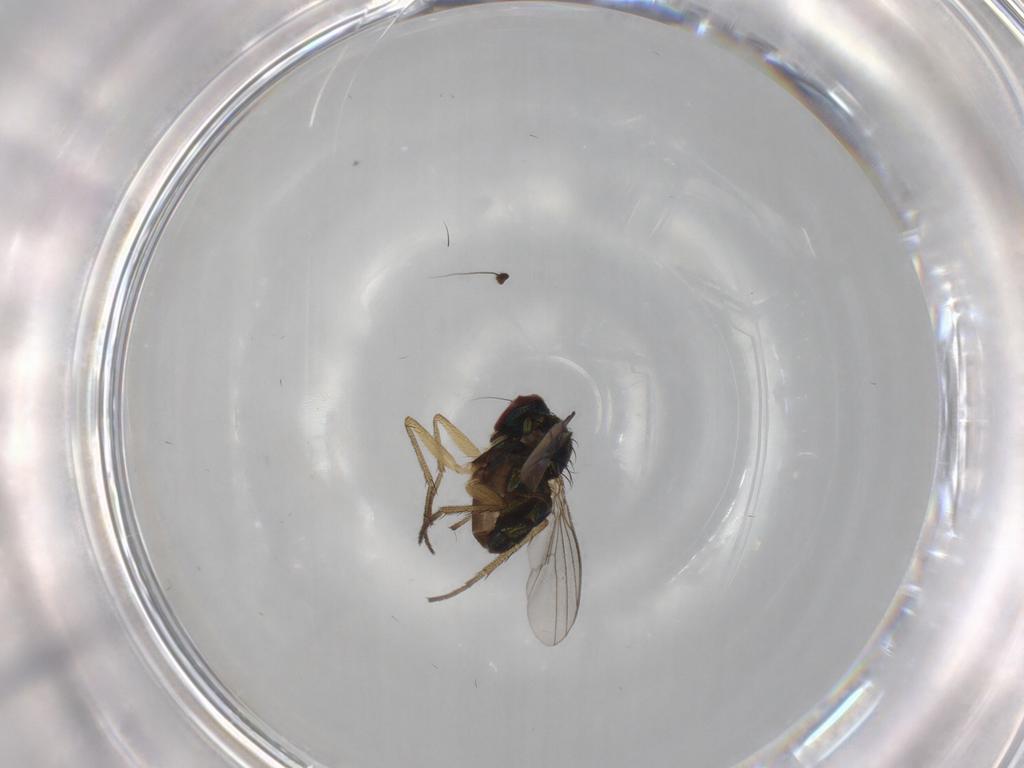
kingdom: Animalia
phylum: Arthropoda
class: Insecta
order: Diptera
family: Dolichopodidae
